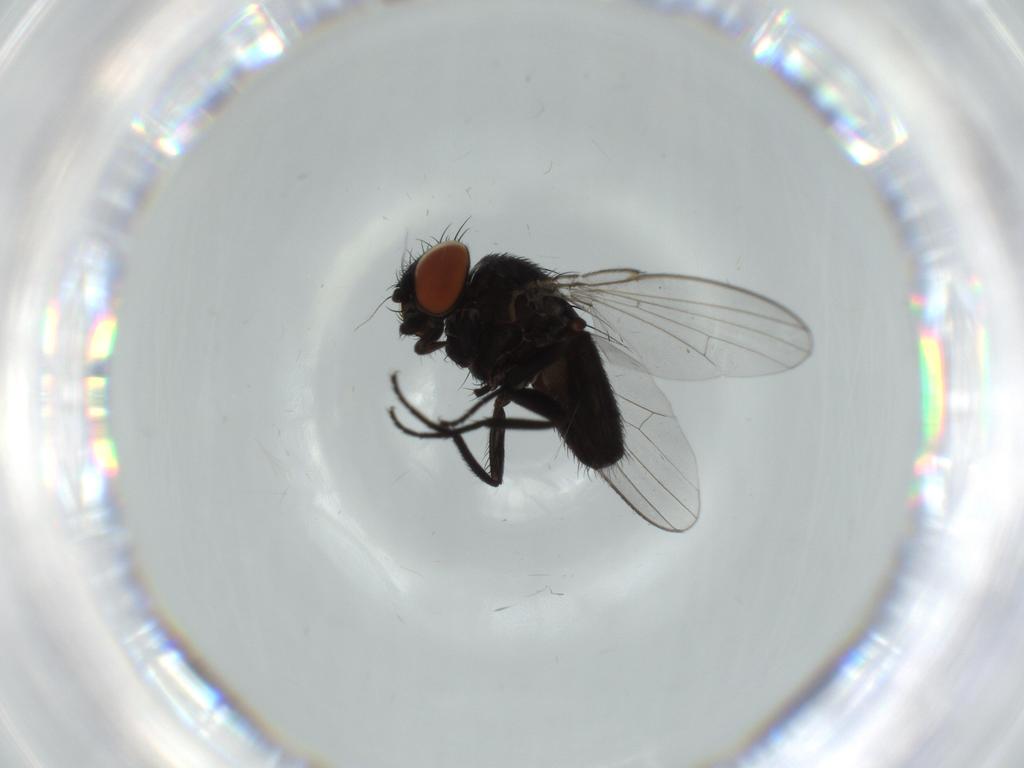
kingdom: Animalia
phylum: Arthropoda
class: Insecta
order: Diptera
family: Milichiidae
